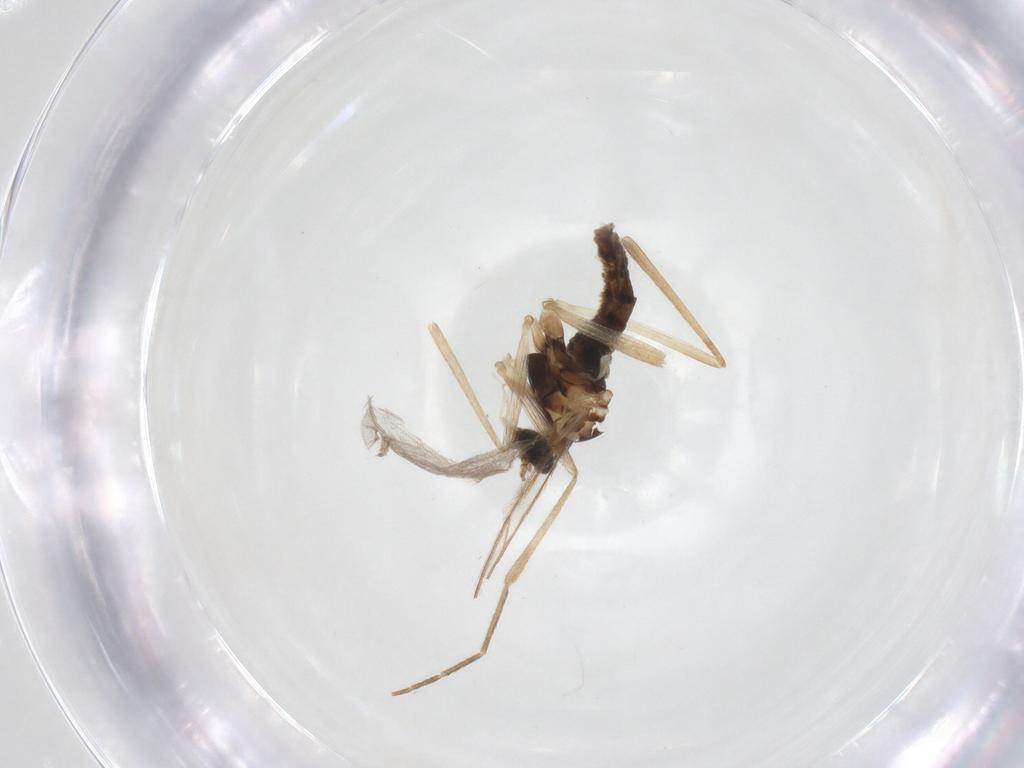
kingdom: Animalia
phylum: Arthropoda
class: Insecta
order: Diptera
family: Cecidomyiidae
